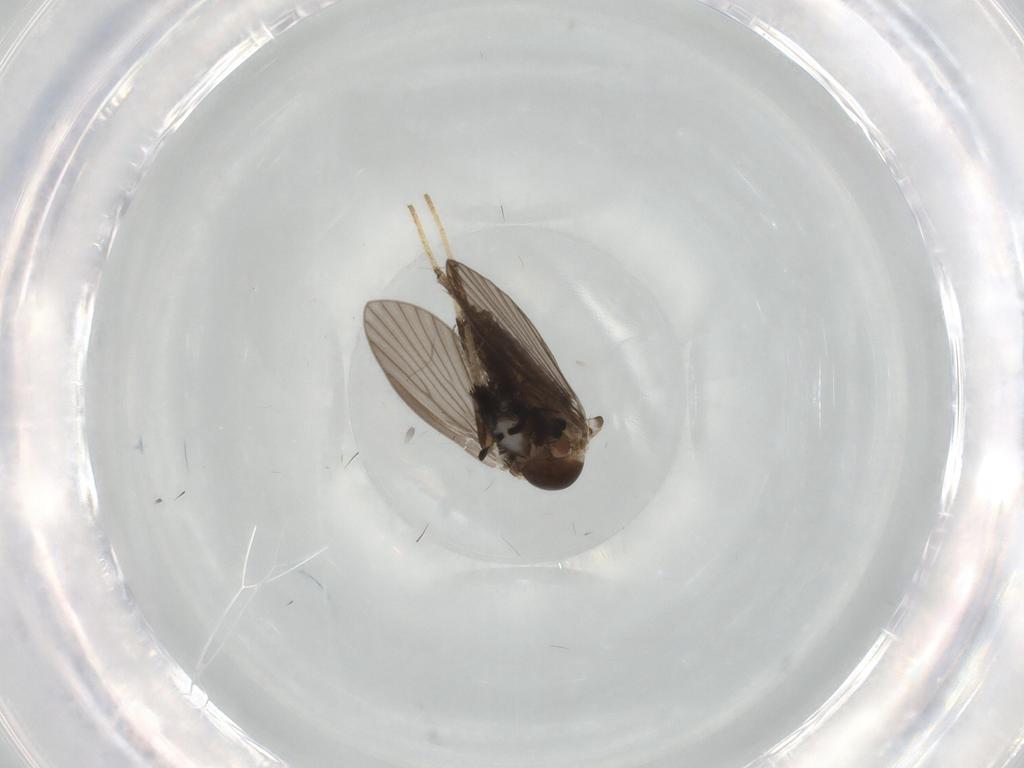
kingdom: Animalia
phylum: Arthropoda
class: Insecta
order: Diptera
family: Psychodidae
